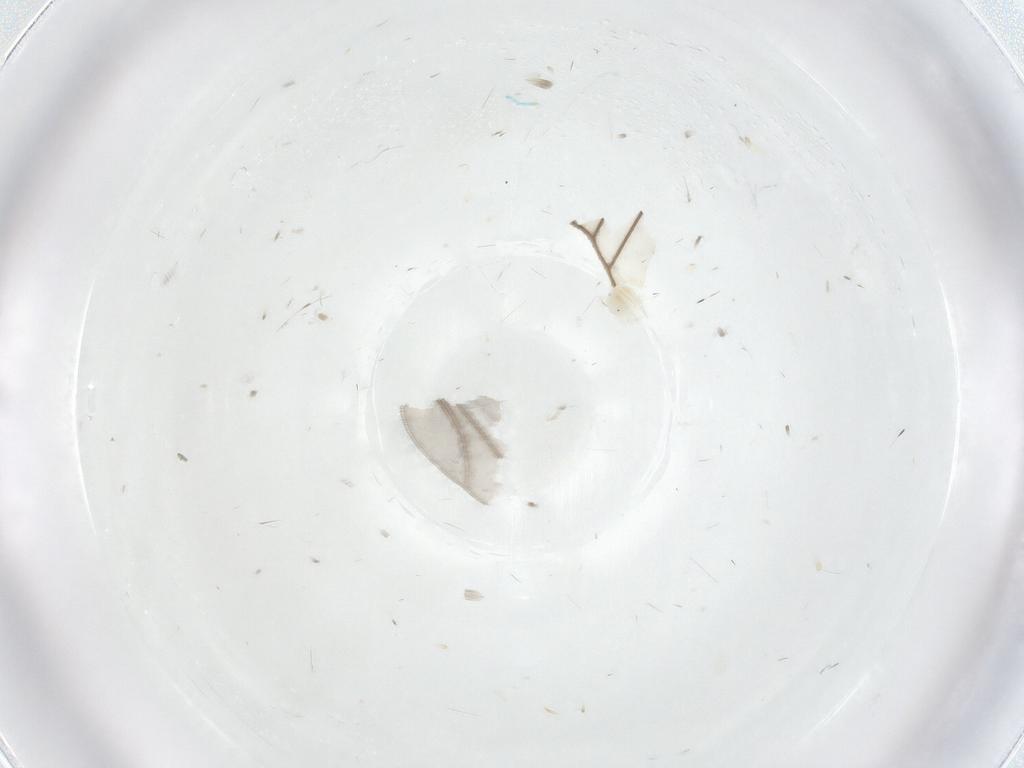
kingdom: Animalia
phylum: Arthropoda
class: Arachnida
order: Trombidiformes
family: Anystidae
